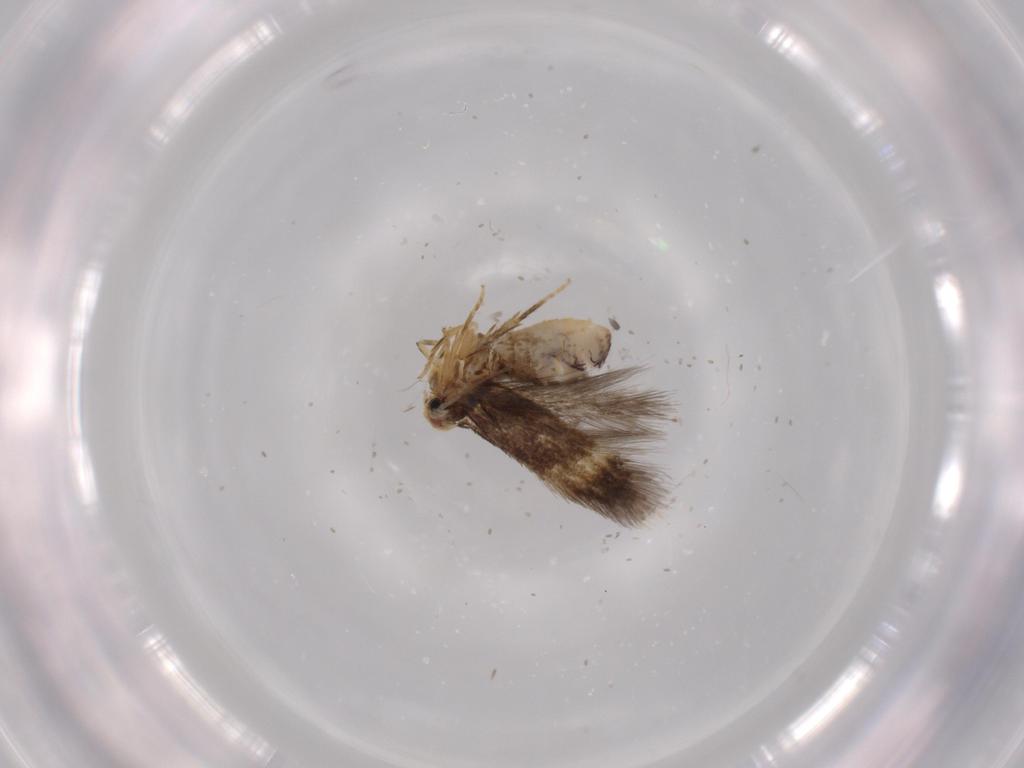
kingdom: Animalia
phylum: Arthropoda
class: Insecta
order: Lepidoptera
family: Nepticulidae
